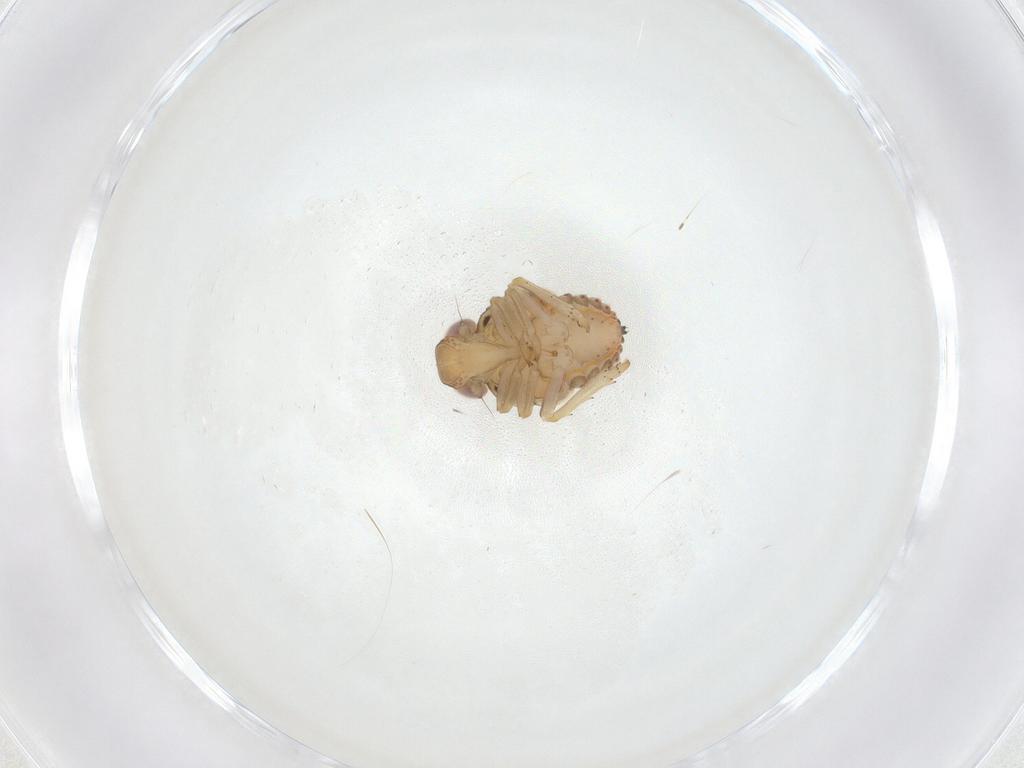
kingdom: Animalia
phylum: Arthropoda
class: Insecta
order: Hemiptera
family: Issidae
